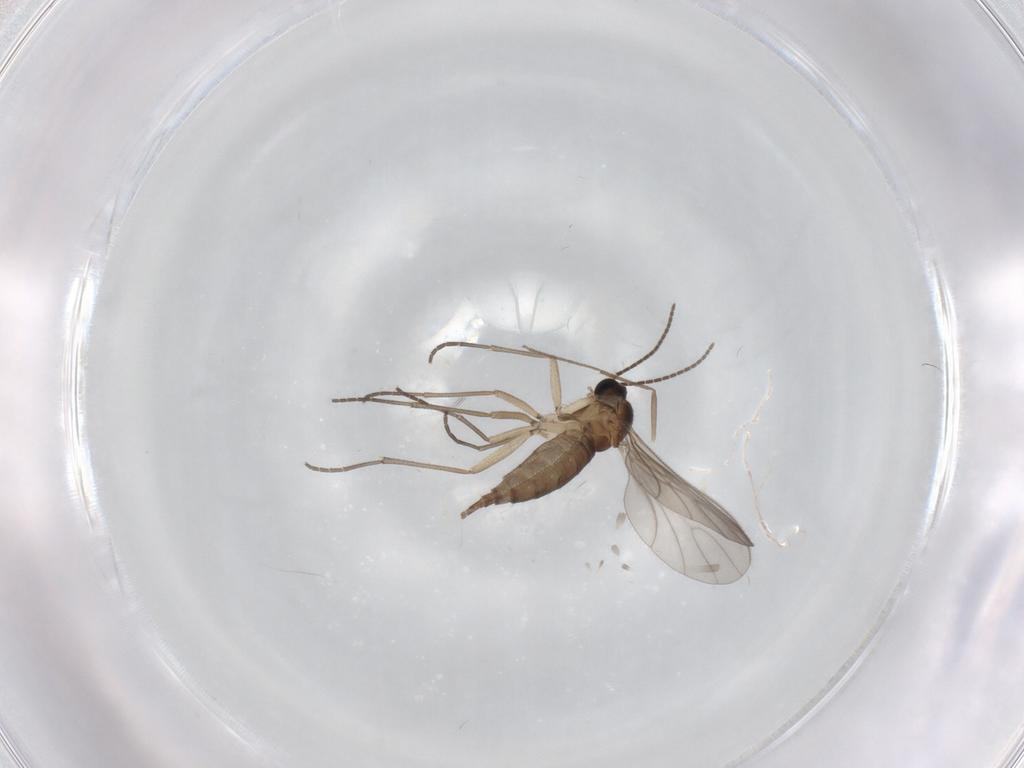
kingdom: Animalia
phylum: Arthropoda
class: Insecta
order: Diptera
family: Sciaridae
